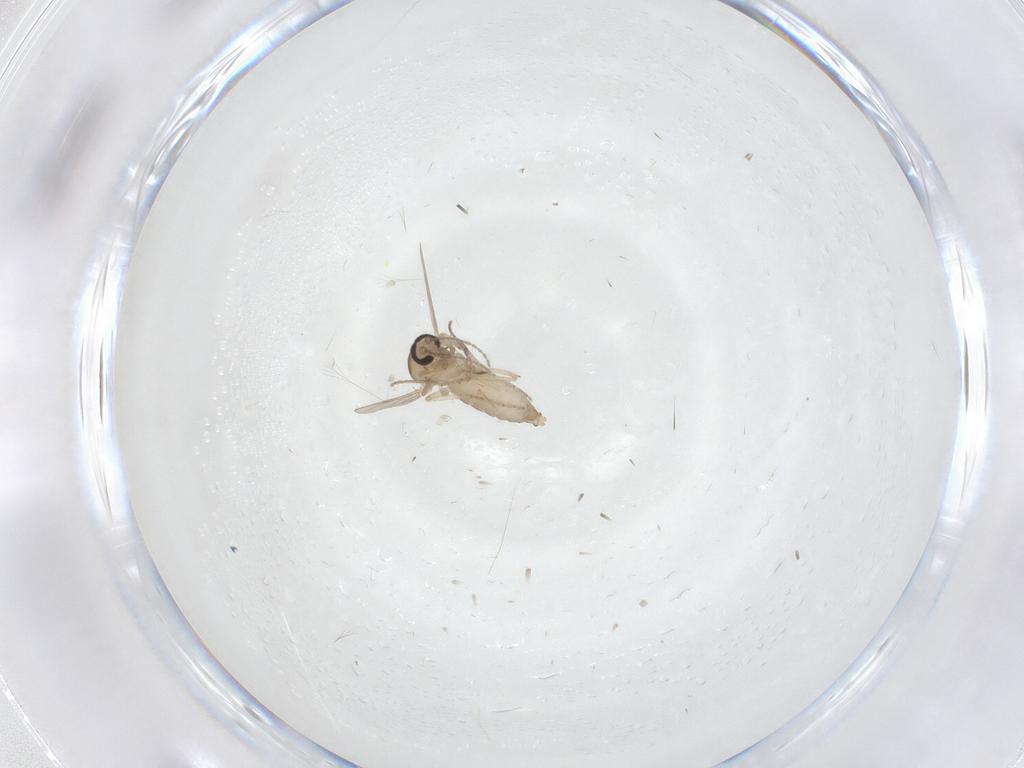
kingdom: Animalia
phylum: Arthropoda
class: Insecta
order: Diptera
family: Ceratopogonidae
